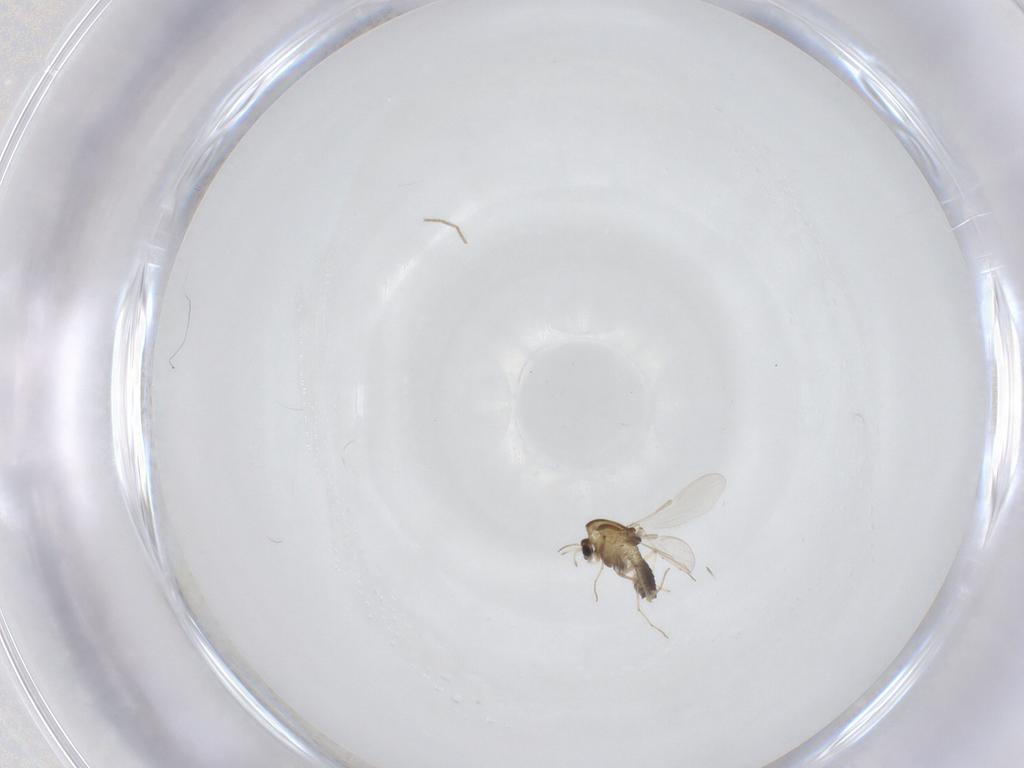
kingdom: Animalia
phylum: Arthropoda
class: Insecta
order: Diptera
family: Chironomidae
